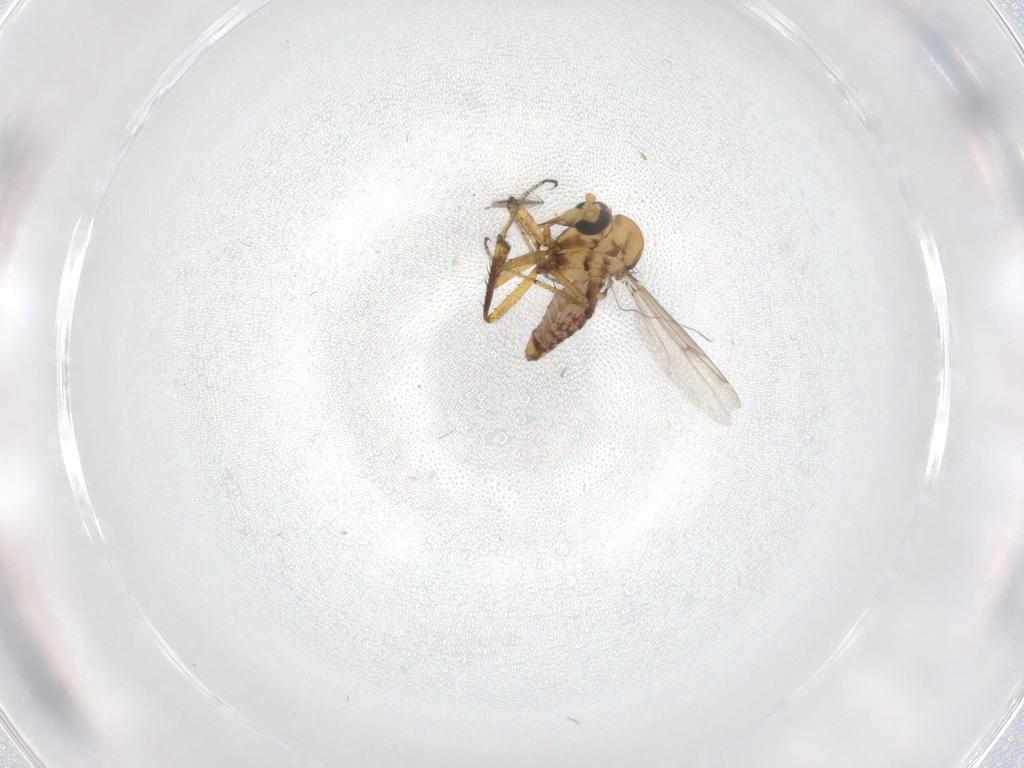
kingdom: Animalia
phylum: Arthropoda
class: Insecta
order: Diptera
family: Ceratopogonidae
